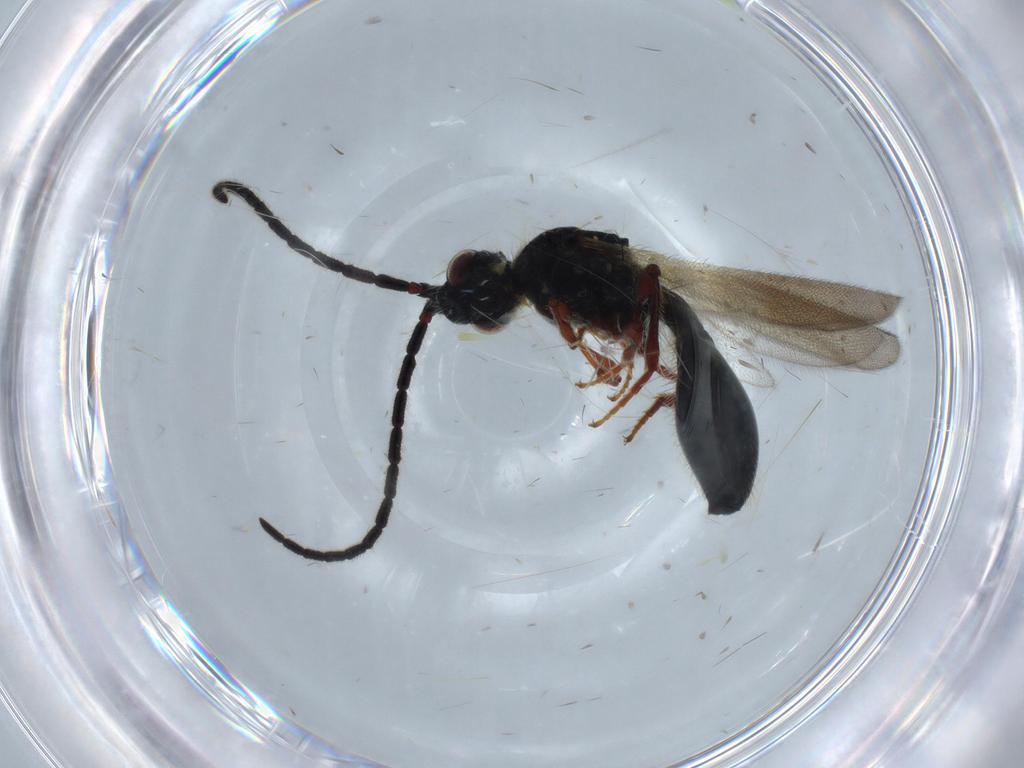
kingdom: Animalia
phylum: Arthropoda
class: Insecta
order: Hymenoptera
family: Diapriidae
